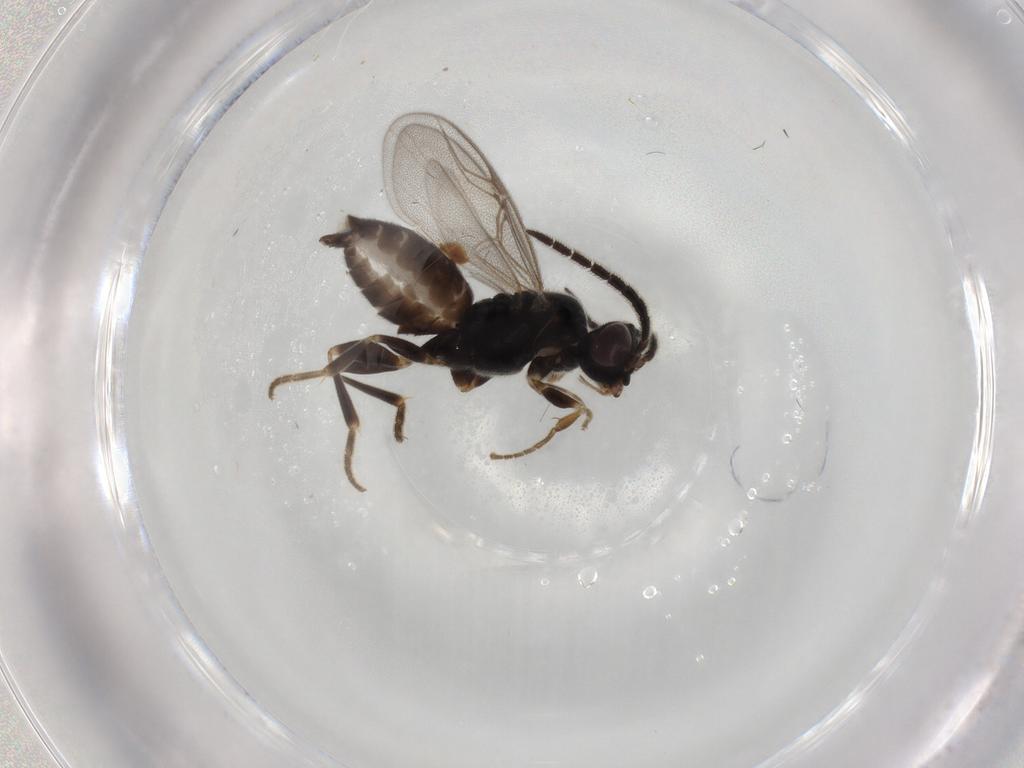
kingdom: Animalia
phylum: Arthropoda
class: Insecta
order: Hymenoptera
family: Dryinidae
